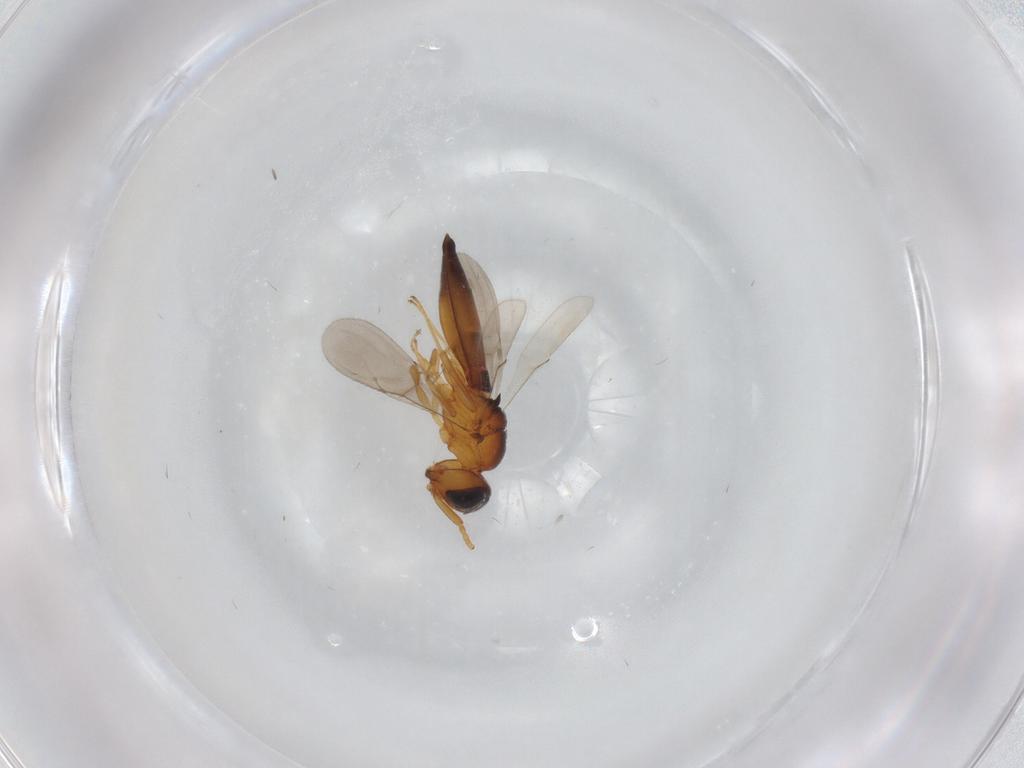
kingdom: Animalia
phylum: Arthropoda
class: Insecta
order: Hymenoptera
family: Scelionidae
